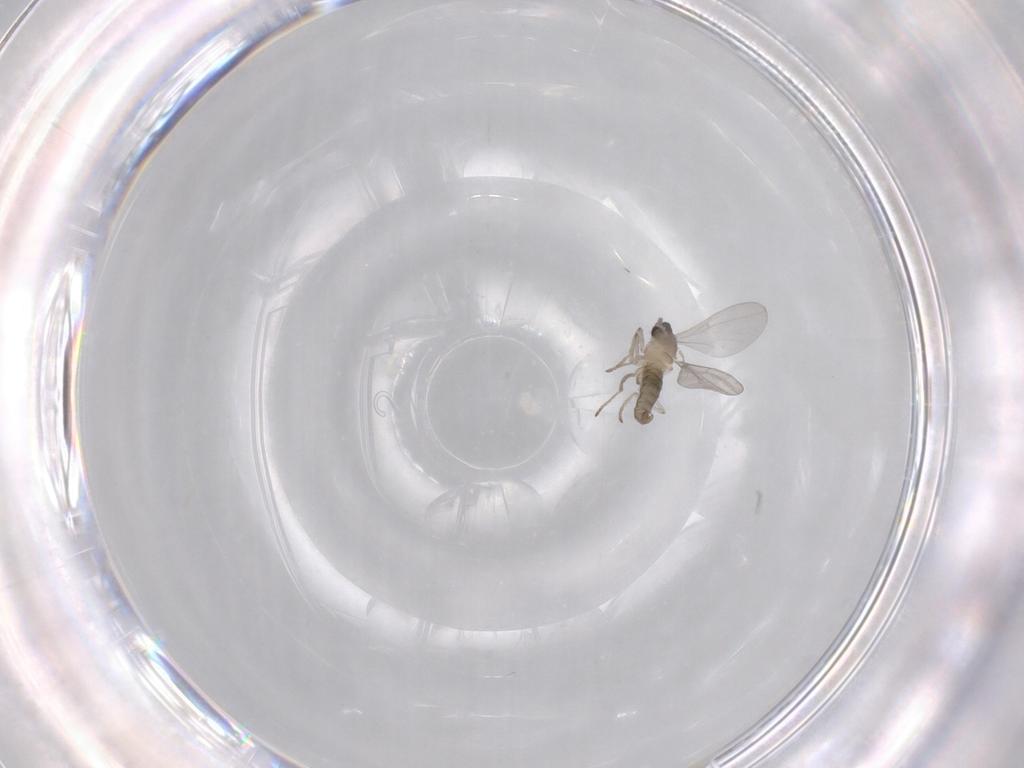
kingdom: Animalia
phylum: Arthropoda
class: Insecta
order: Diptera
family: Cecidomyiidae
